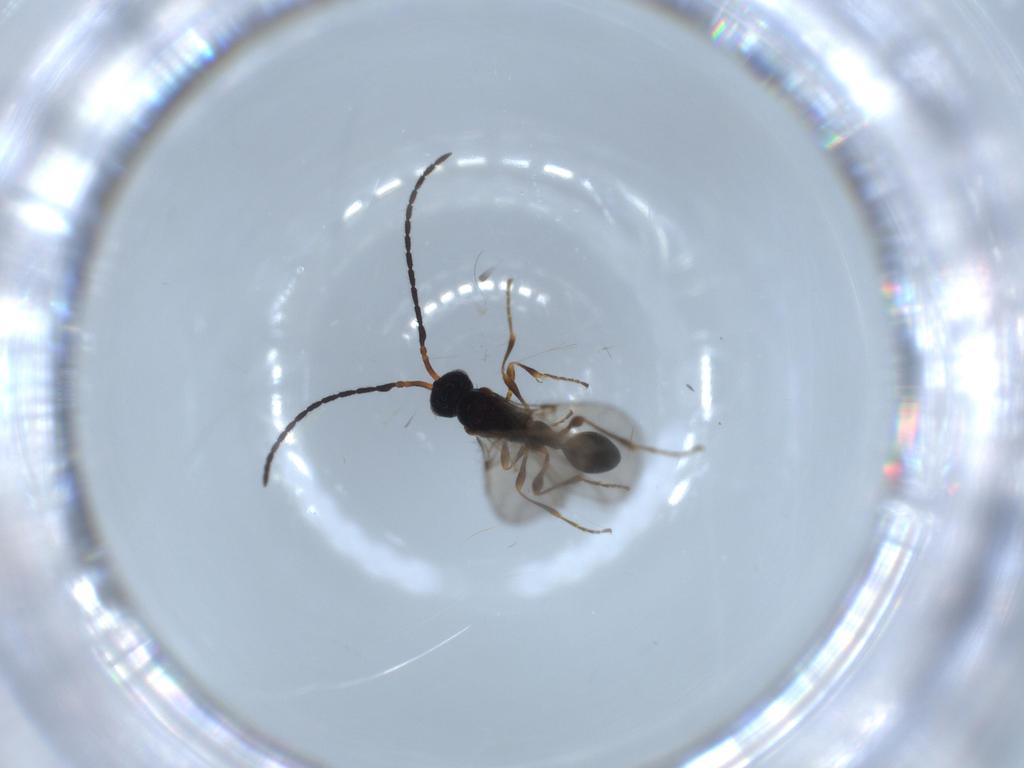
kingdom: Animalia
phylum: Arthropoda
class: Insecta
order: Hymenoptera
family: Diapriidae
